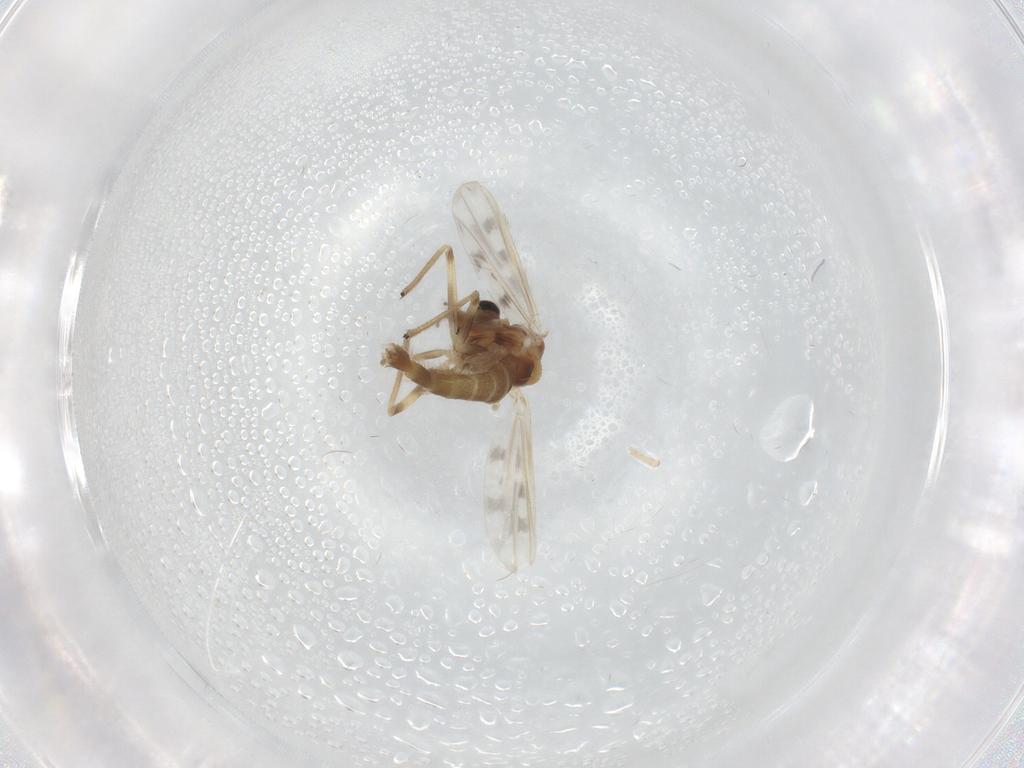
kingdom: Animalia
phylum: Arthropoda
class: Insecta
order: Diptera
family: Chironomidae
